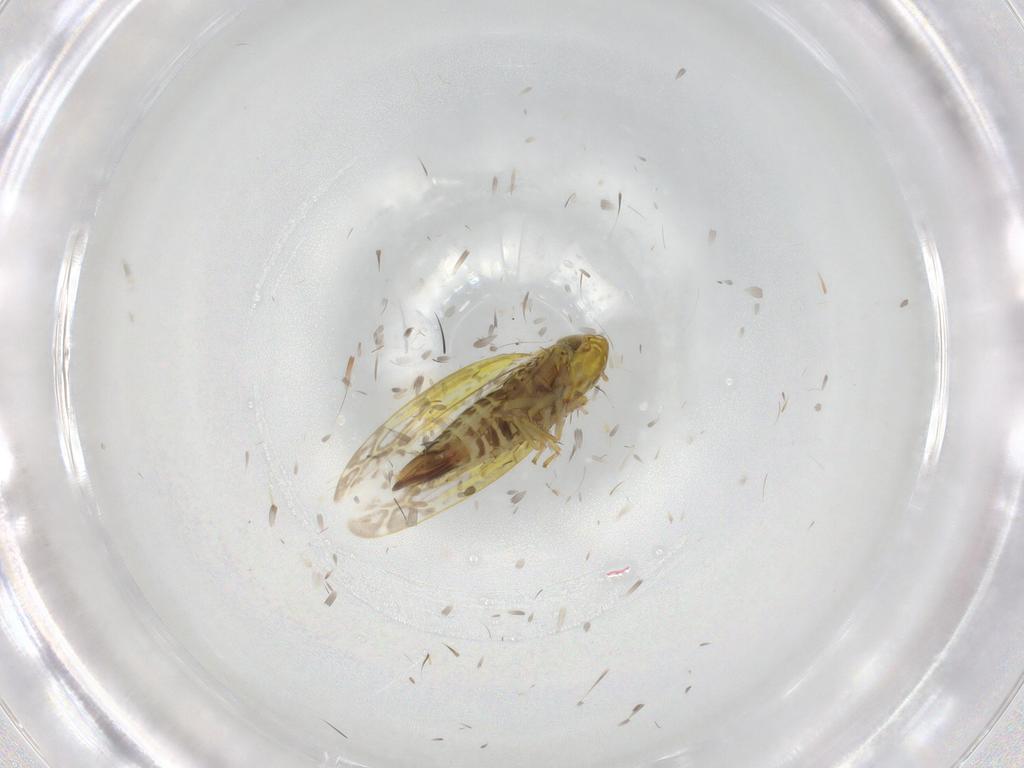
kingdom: Animalia
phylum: Arthropoda
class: Insecta
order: Hemiptera
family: Cicadellidae
